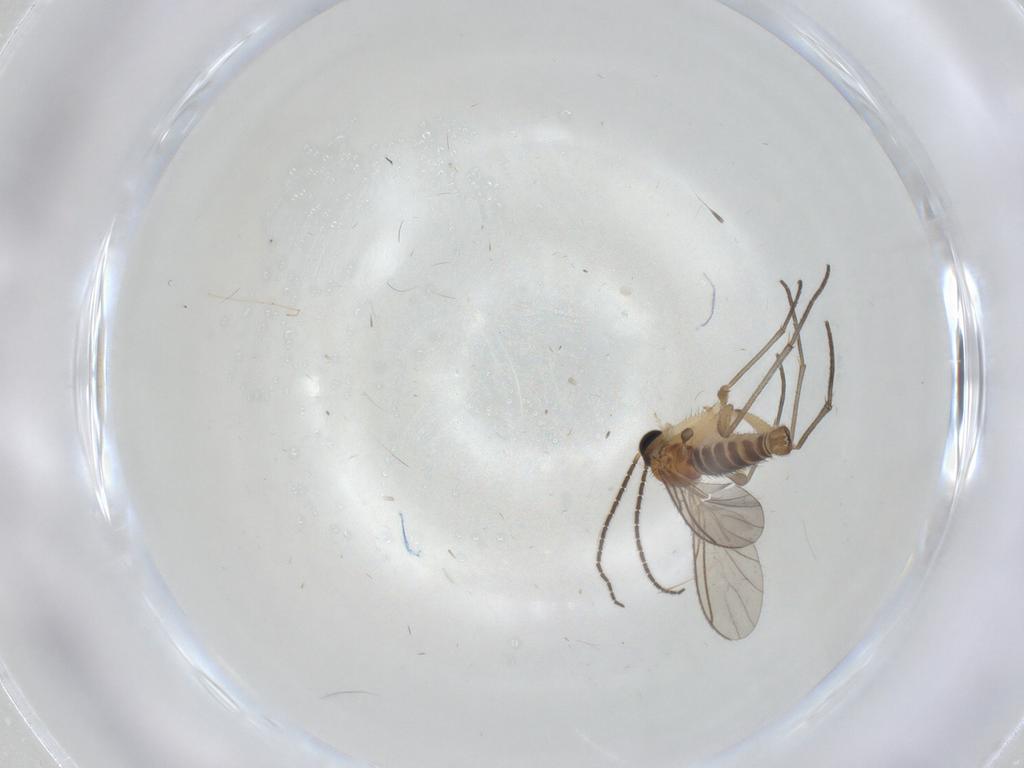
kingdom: Animalia
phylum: Arthropoda
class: Insecta
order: Diptera
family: Cecidomyiidae
